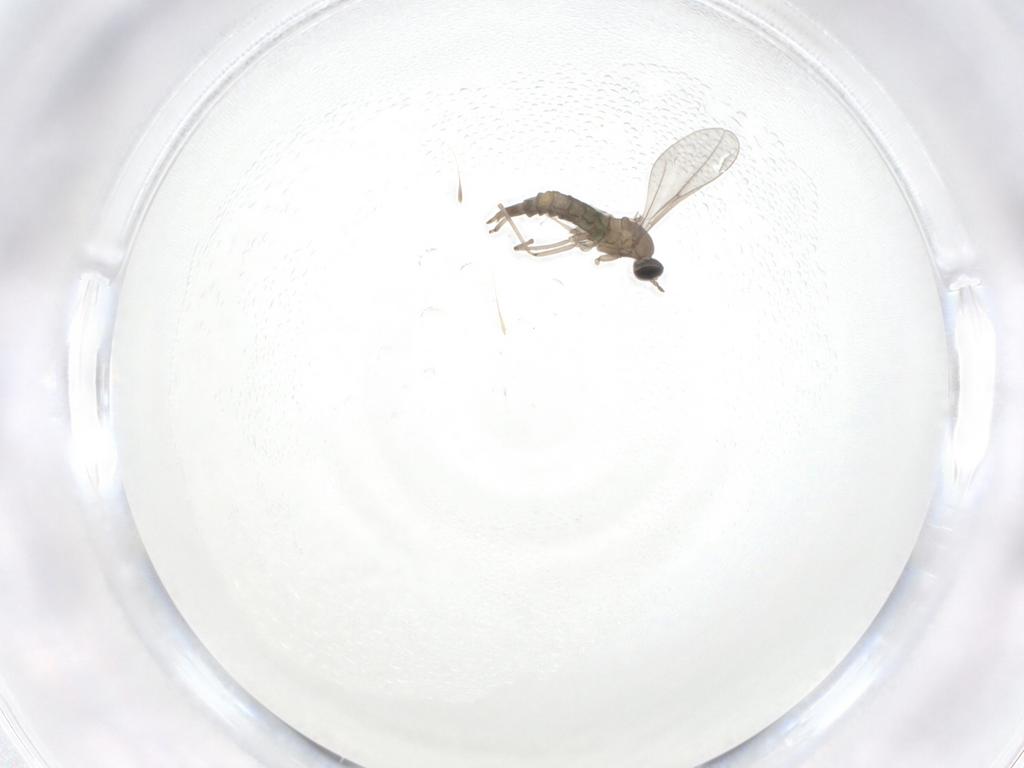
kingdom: Animalia
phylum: Arthropoda
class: Insecta
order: Diptera
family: Cecidomyiidae
